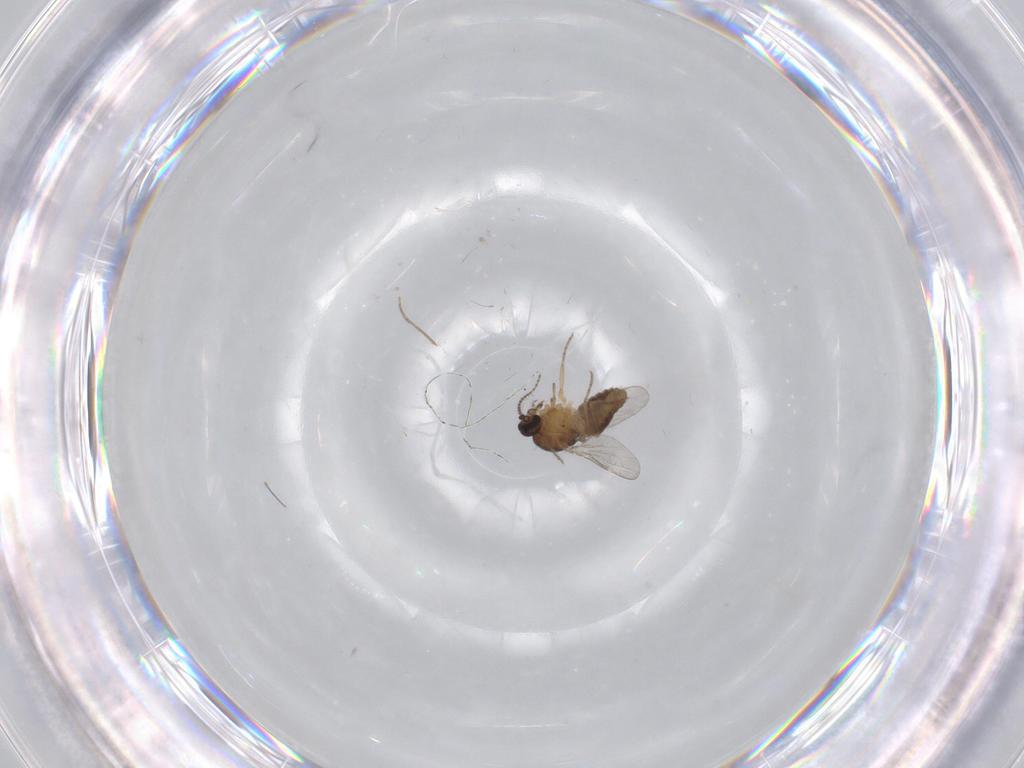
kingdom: Animalia
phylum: Arthropoda
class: Insecta
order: Diptera
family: Ceratopogonidae
